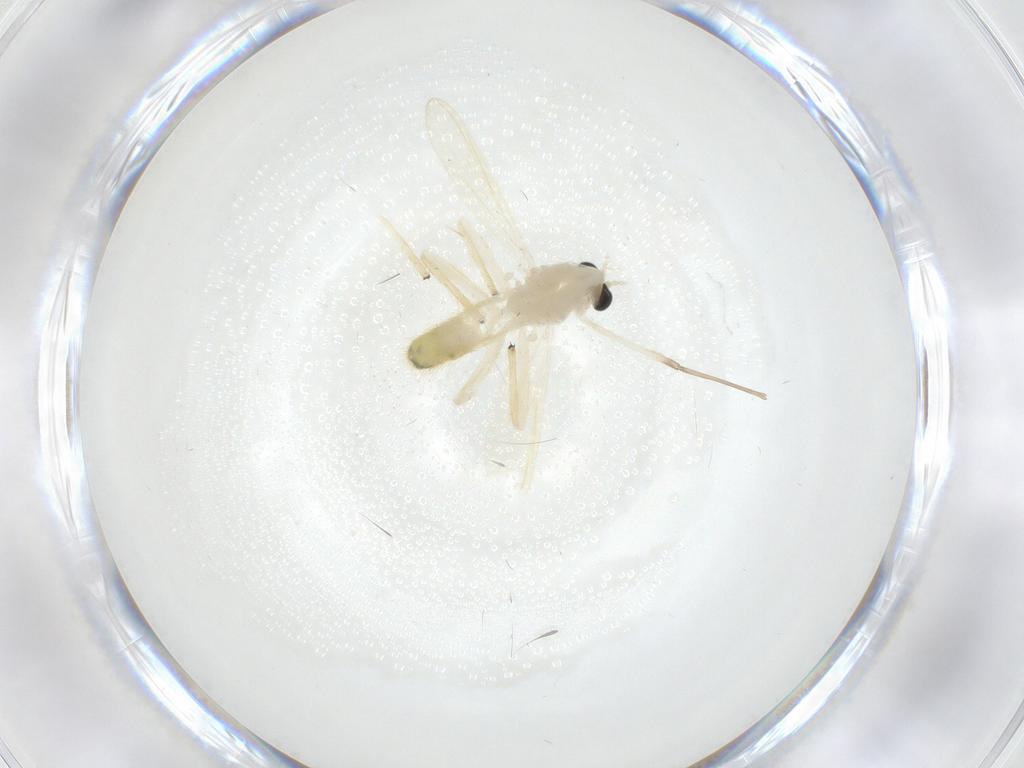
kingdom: Animalia
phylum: Arthropoda
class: Insecta
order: Diptera
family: Chironomidae
